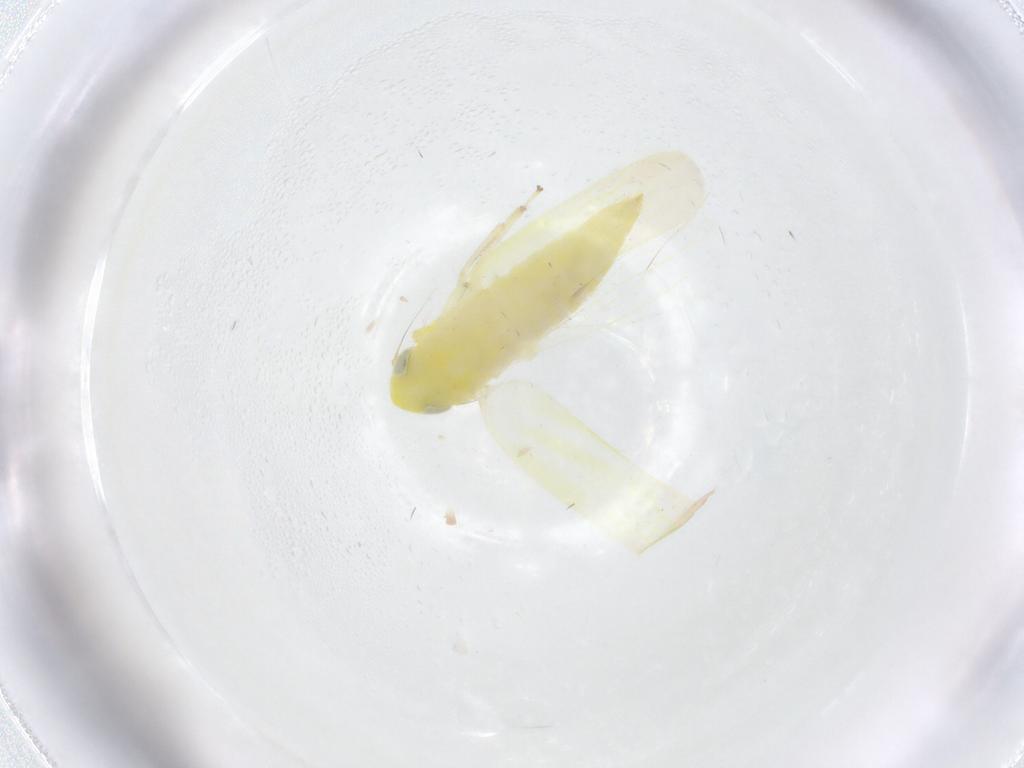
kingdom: Animalia
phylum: Arthropoda
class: Insecta
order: Hemiptera
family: Cicadellidae
